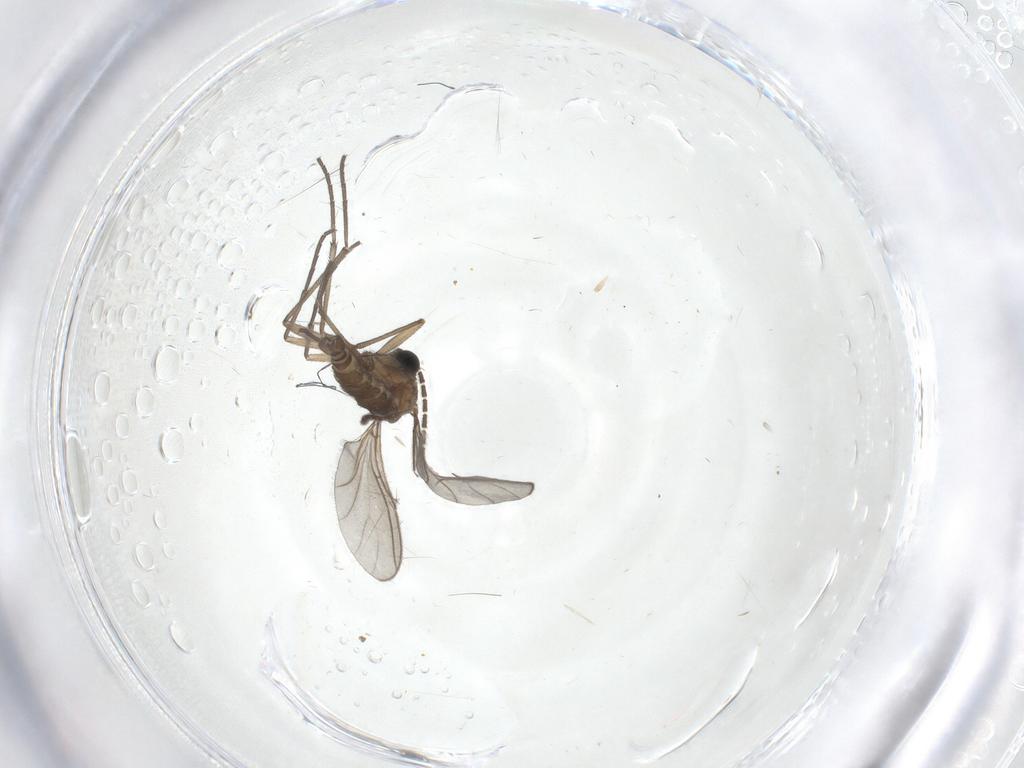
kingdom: Animalia
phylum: Arthropoda
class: Insecta
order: Diptera
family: Sciaridae
